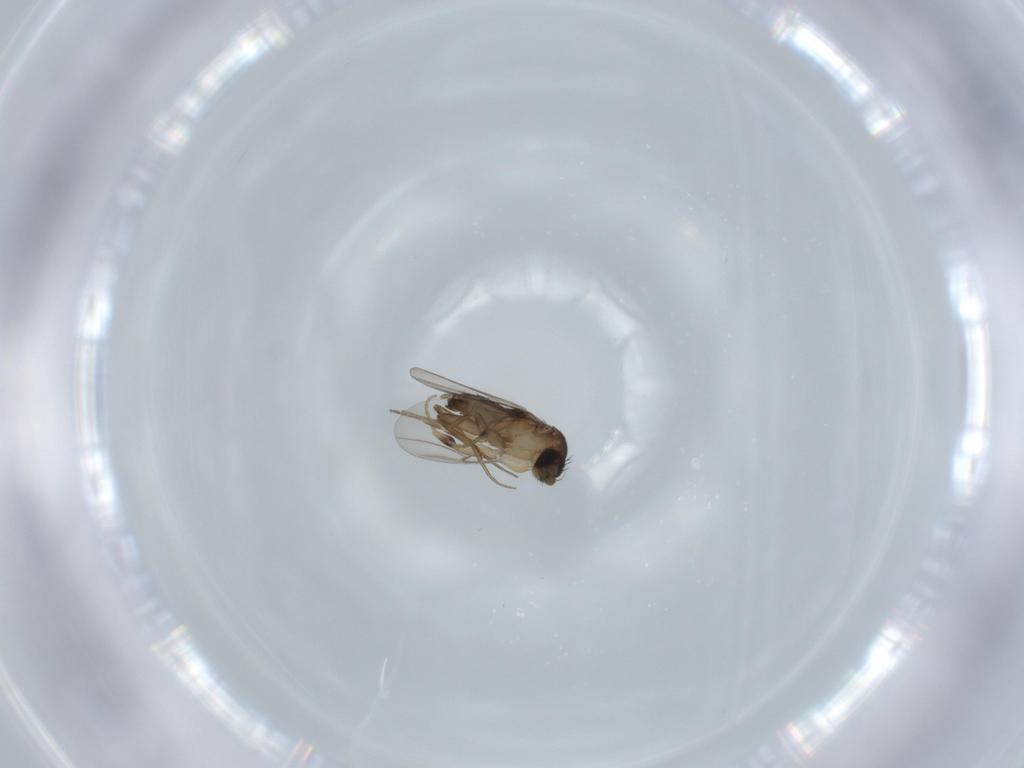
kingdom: Animalia
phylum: Arthropoda
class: Insecta
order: Diptera
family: Phoridae
